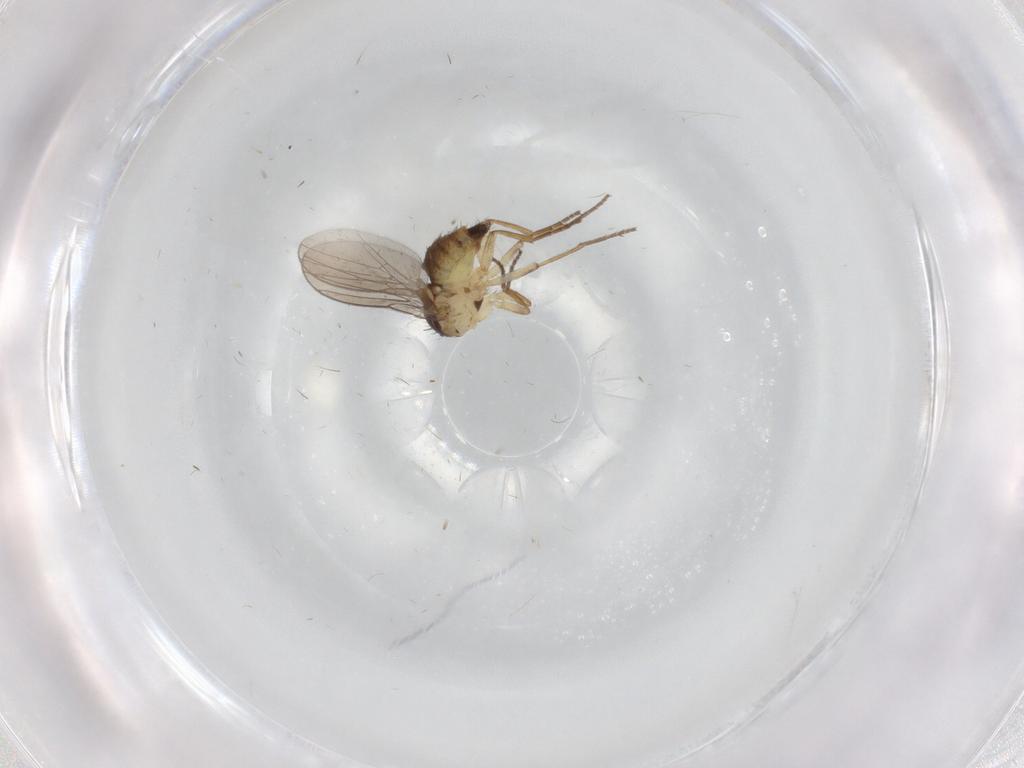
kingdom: Animalia
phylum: Arthropoda
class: Insecta
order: Diptera
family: Agromyzidae
